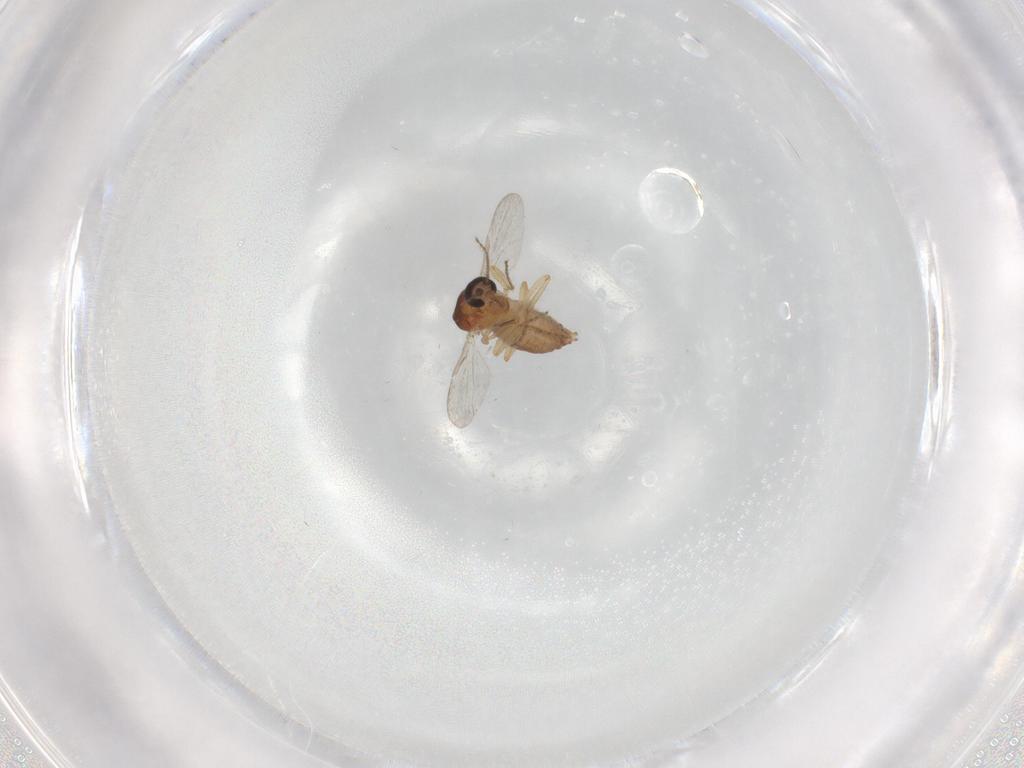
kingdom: Animalia
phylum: Arthropoda
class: Insecta
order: Diptera
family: Ceratopogonidae
